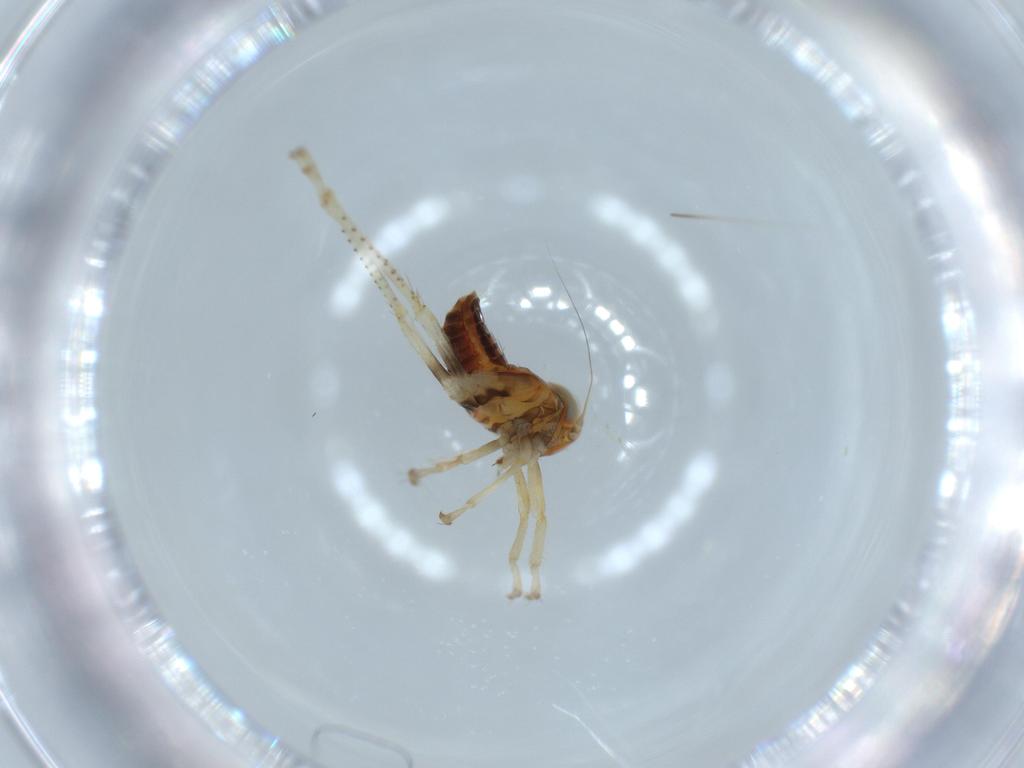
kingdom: Animalia
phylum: Arthropoda
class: Insecta
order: Hemiptera
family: Cicadellidae
